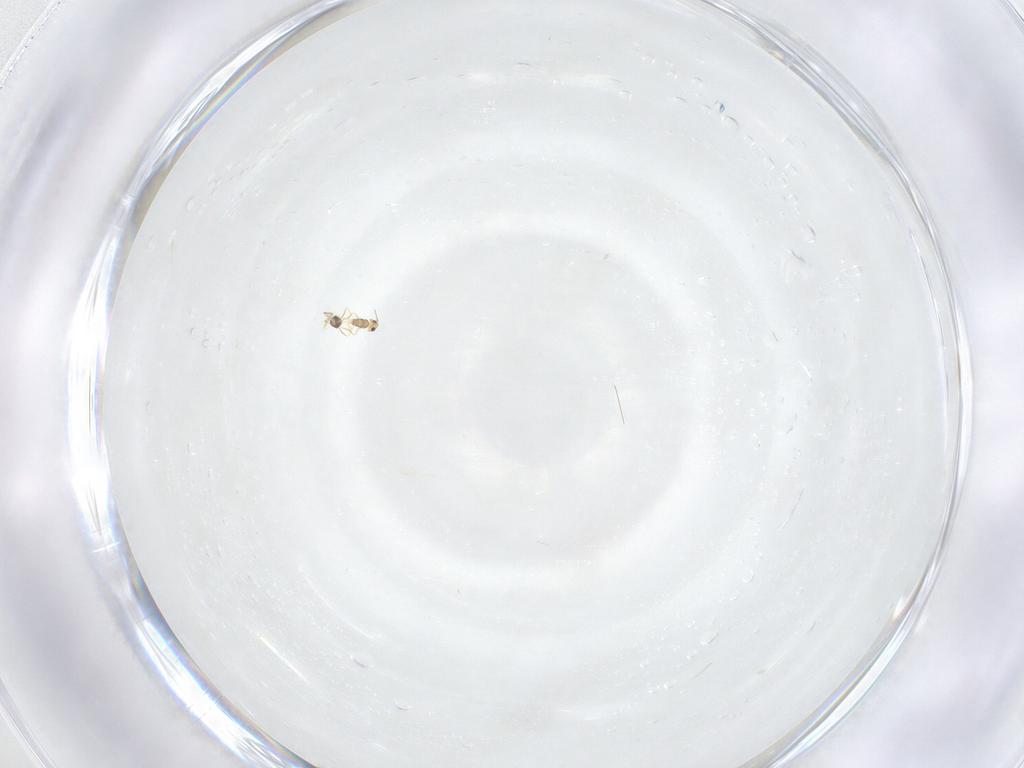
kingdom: Animalia
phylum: Arthropoda
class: Insecta
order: Hymenoptera
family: Mymarommatidae
